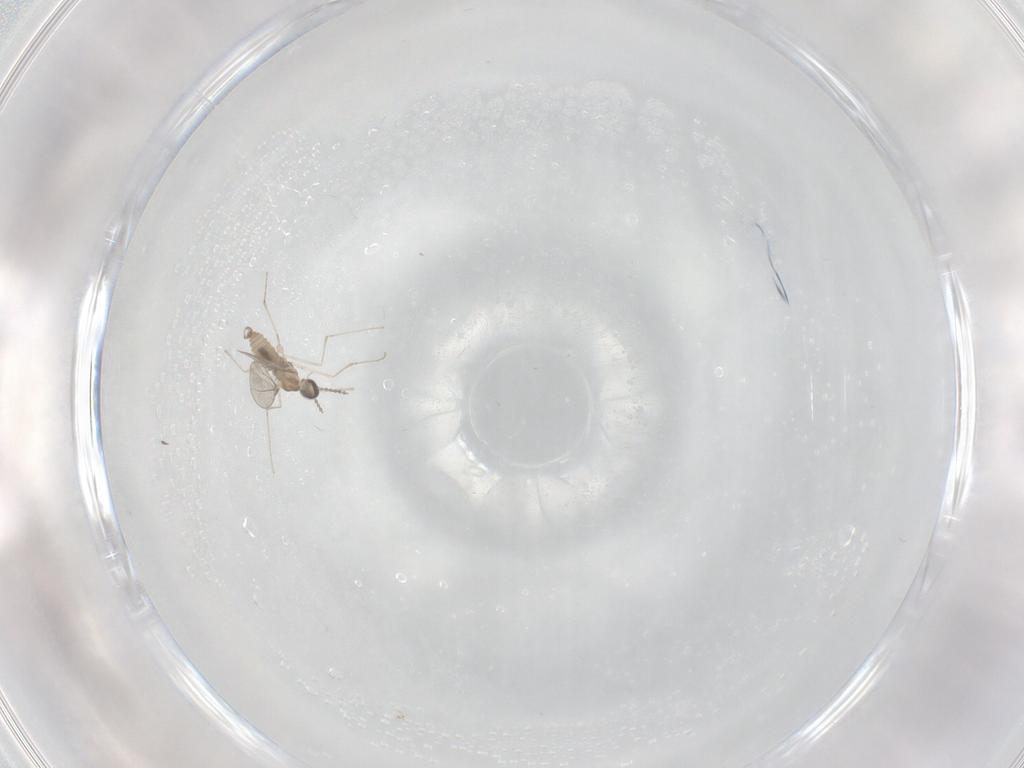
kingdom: Animalia
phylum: Arthropoda
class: Insecta
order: Diptera
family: Cecidomyiidae
